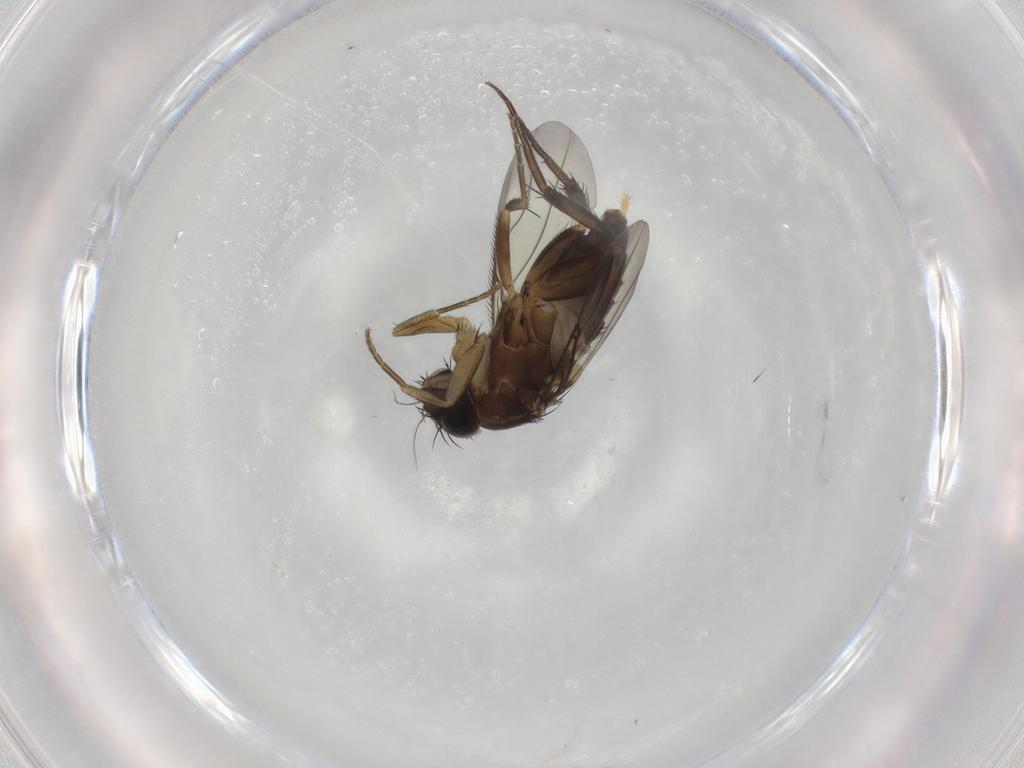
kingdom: Animalia
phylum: Arthropoda
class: Insecta
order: Diptera
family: Phoridae
